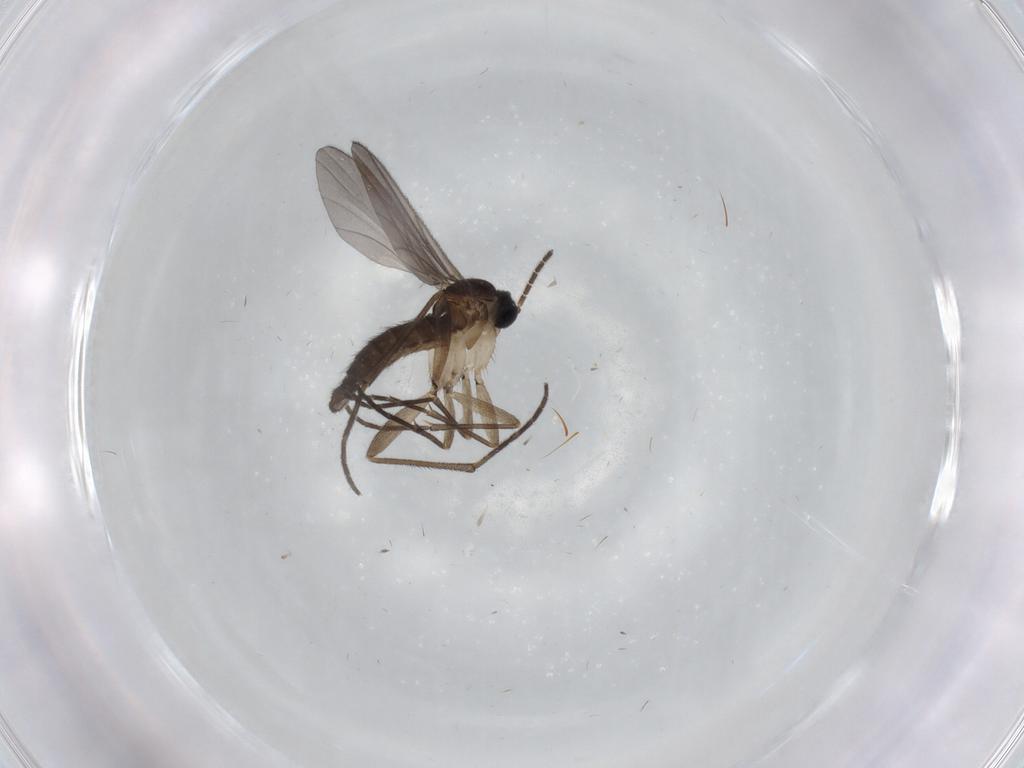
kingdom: Animalia
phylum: Arthropoda
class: Insecta
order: Diptera
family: Sciaridae
